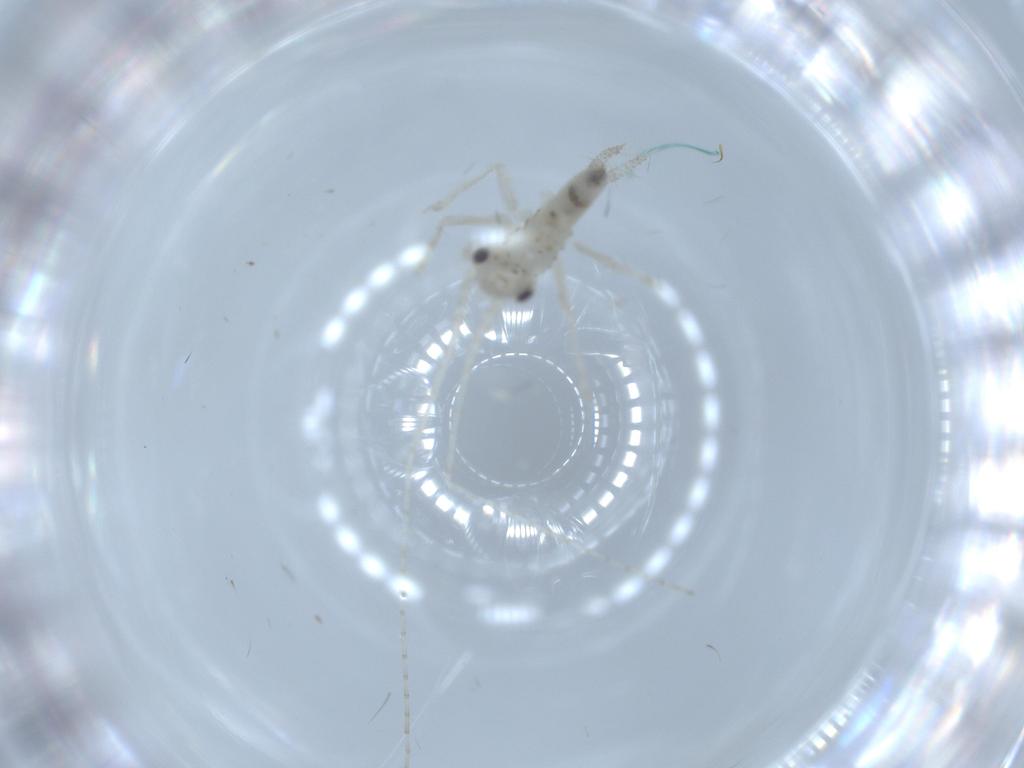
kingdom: Animalia
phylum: Arthropoda
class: Insecta
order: Orthoptera
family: Trigonidiidae
